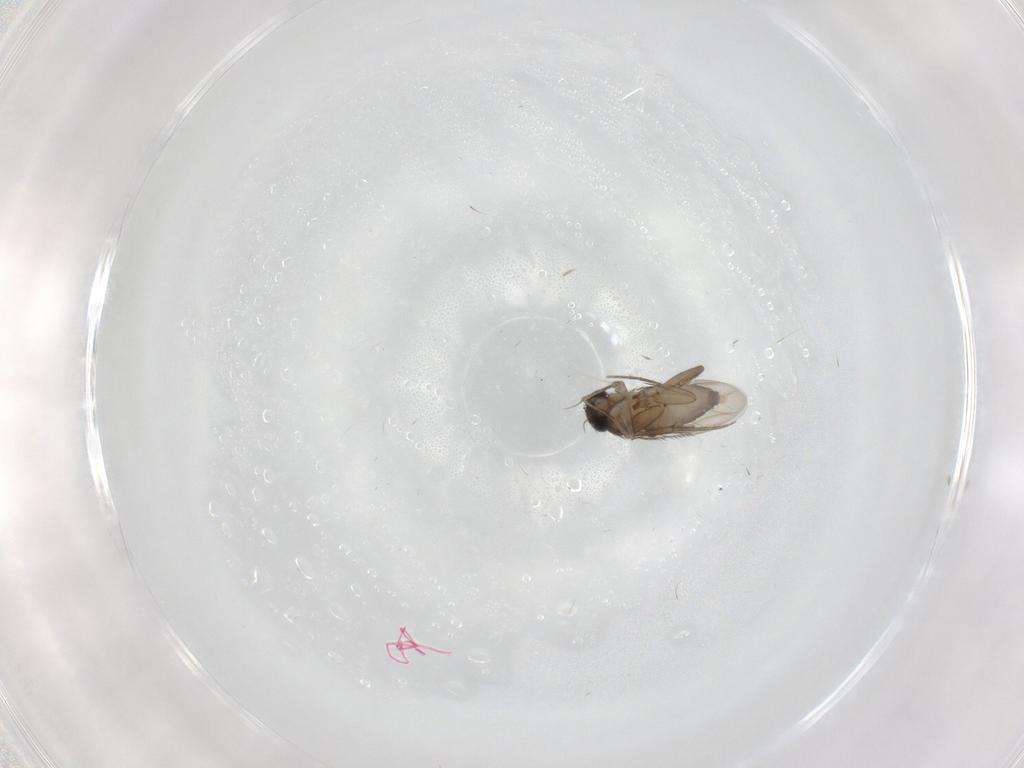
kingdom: Animalia
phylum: Arthropoda
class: Insecta
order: Diptera
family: Phoridae
